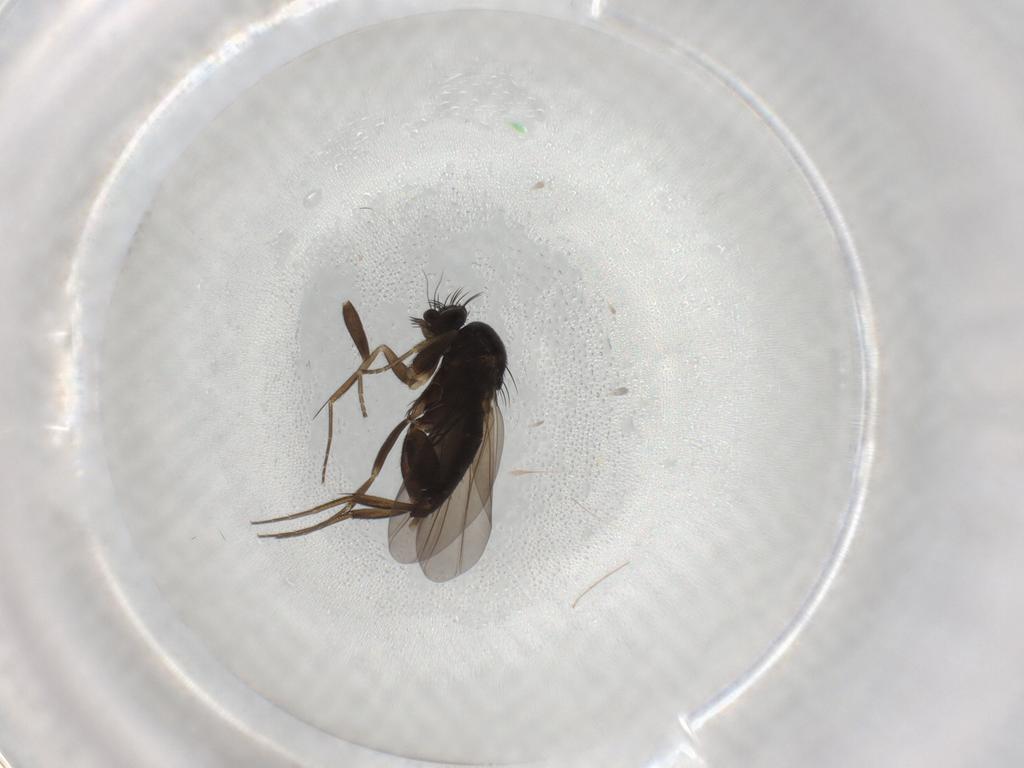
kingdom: Animalia
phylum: Arthropoda
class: Insecta
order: Diptera
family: Phoridae
